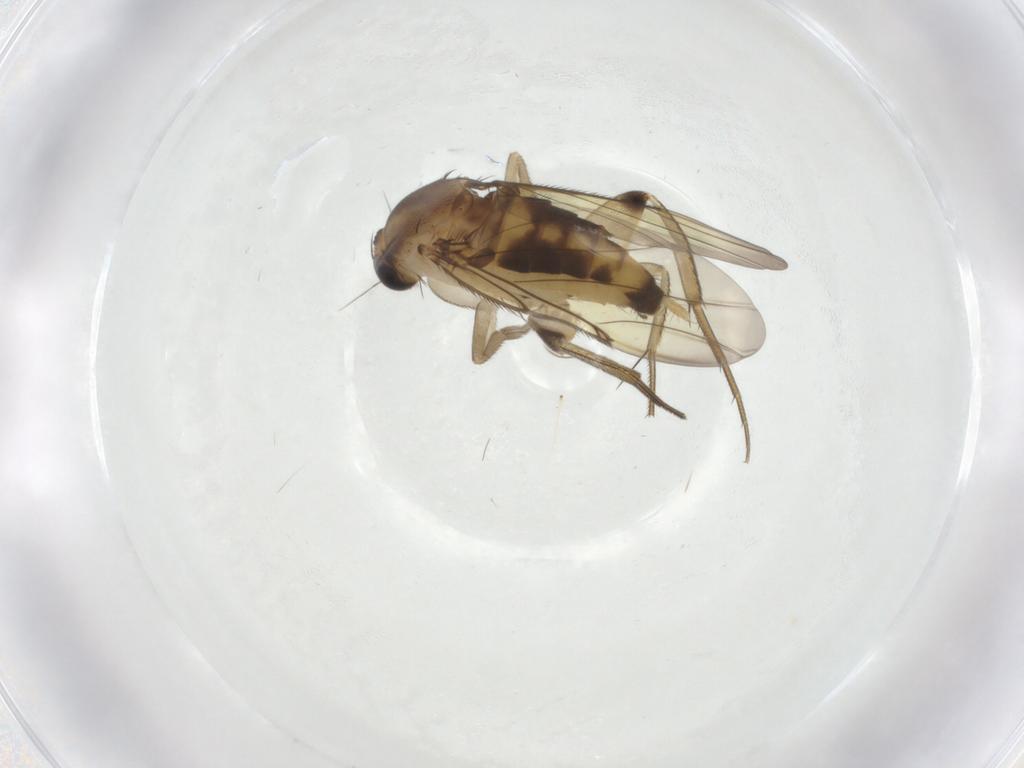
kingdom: Animalia
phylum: Arthropoda
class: Insecta
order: Diptera
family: Phoridae
